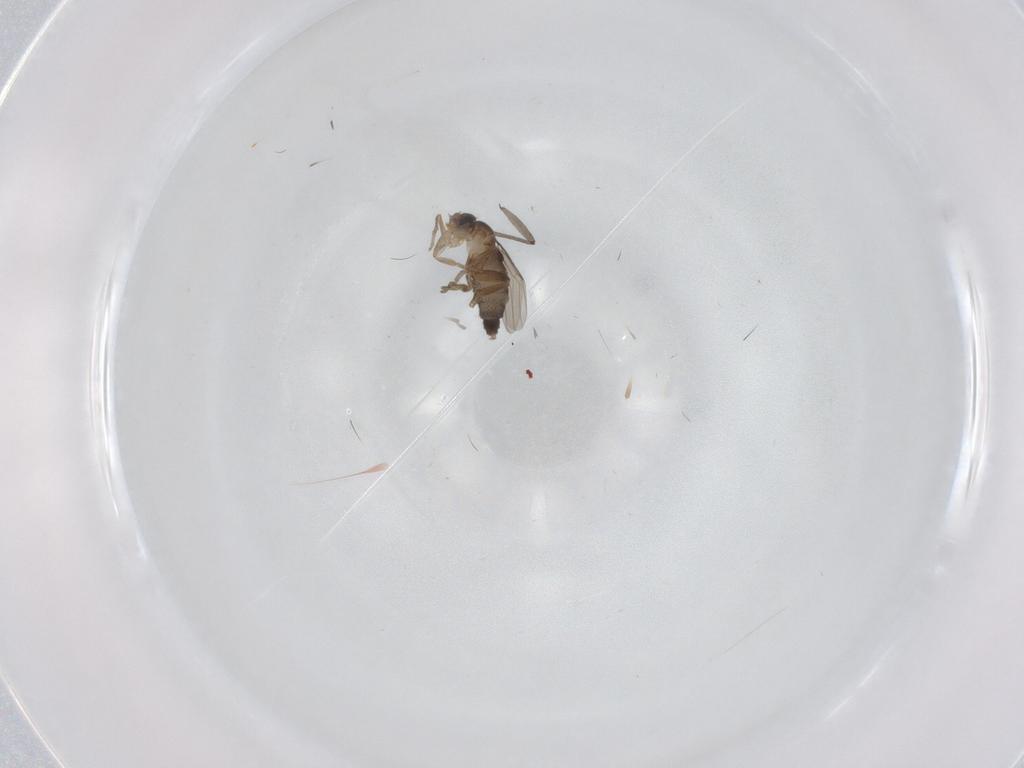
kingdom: Animalia
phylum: Arthropoda
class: Insecta
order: Diptera
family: Cecidomyiidae
